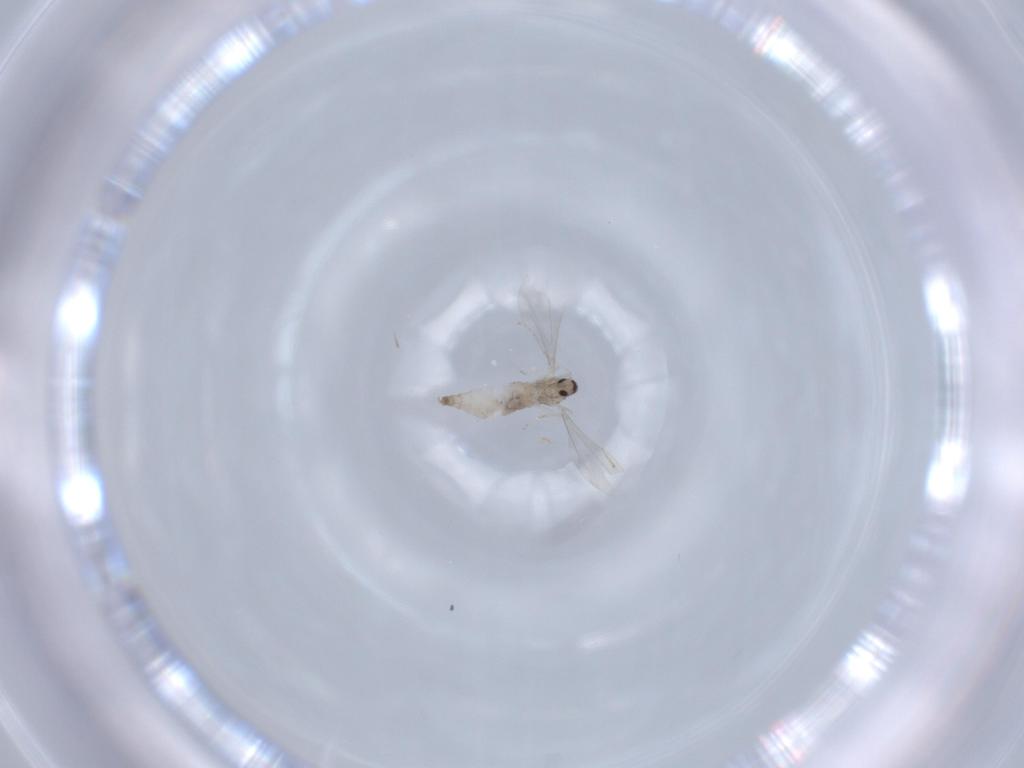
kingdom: Animalia
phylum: Arthropoda
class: Insecta
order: Diptera
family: Cecidomyiidae
